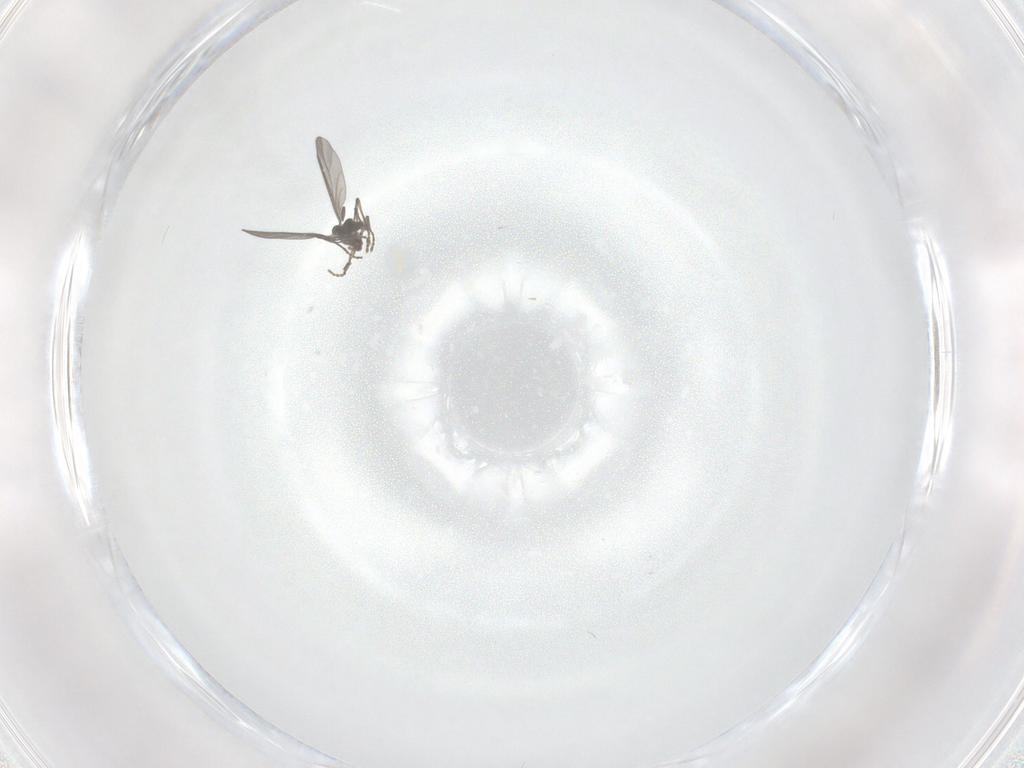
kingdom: Animalia
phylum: Arthropoda
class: Insecta
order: Diptera
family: Dolichopodidae
